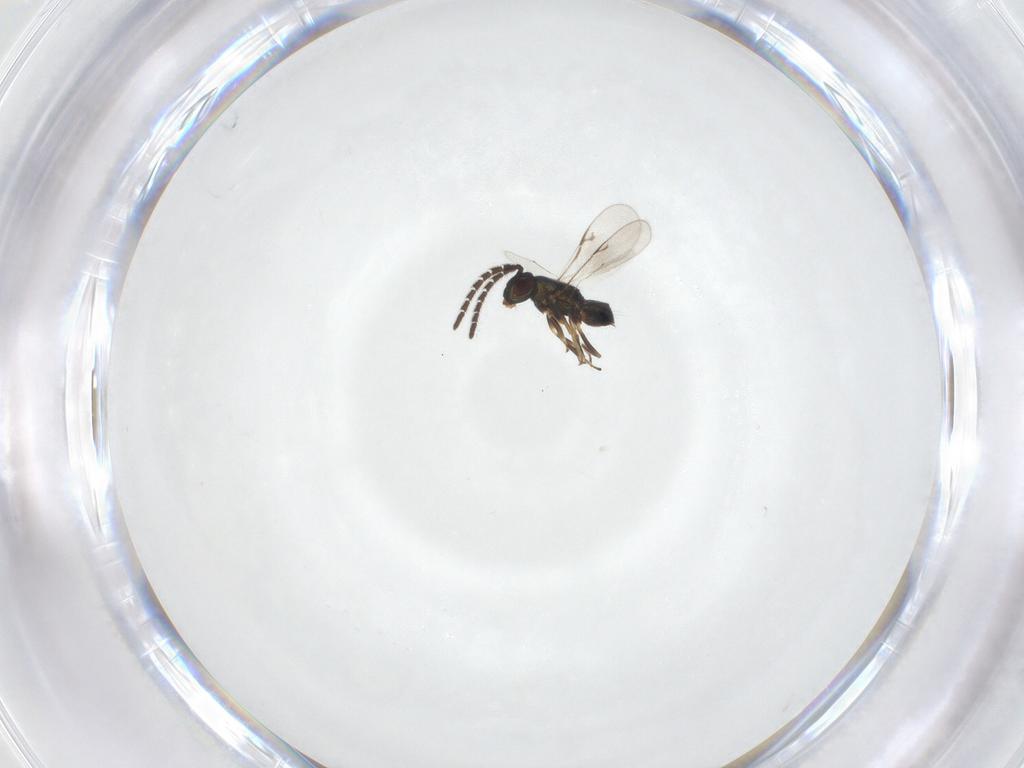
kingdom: Animalia
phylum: Arthropoda
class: Insecta
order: Hymenoptera
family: Encyrtidae
